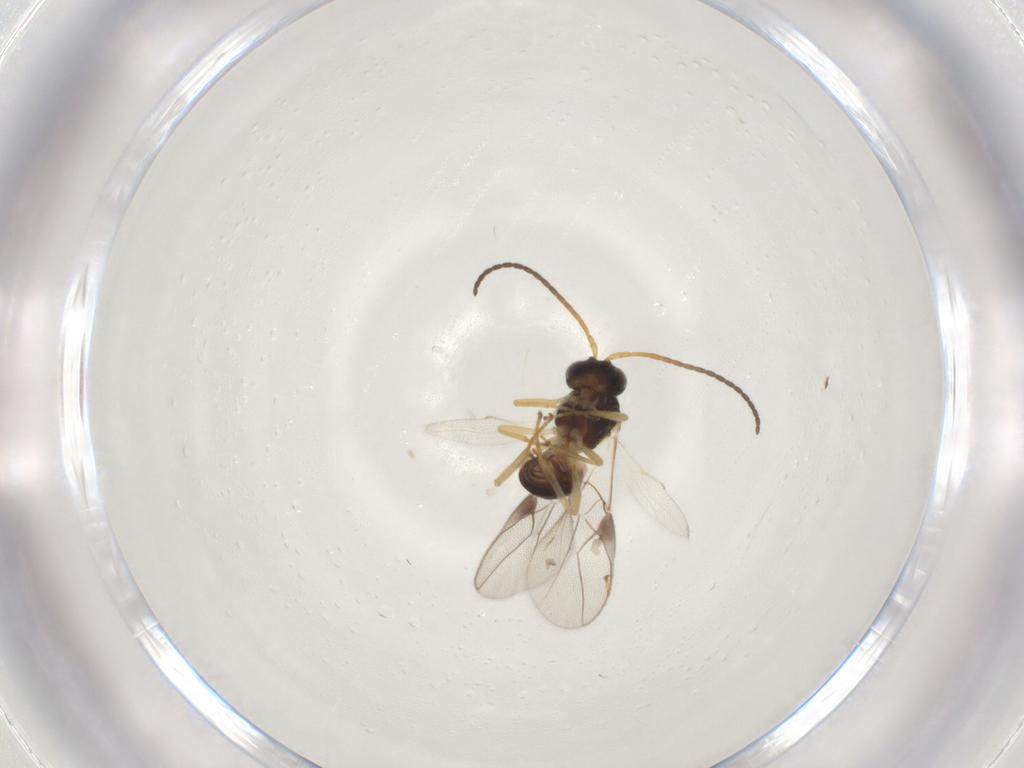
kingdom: Animalia
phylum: Arthropoda
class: Insecta
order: Hymenoptera
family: Braconidae
